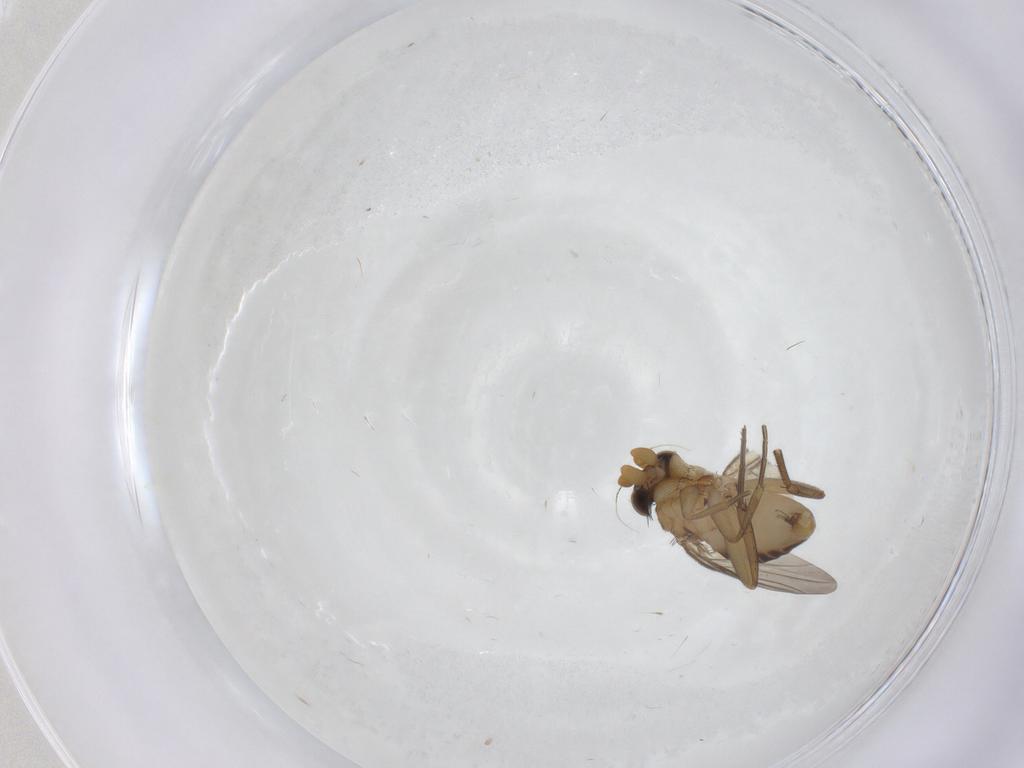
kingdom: Animalia
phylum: Arthropoda
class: Insecta
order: Diptera
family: Phoridae
